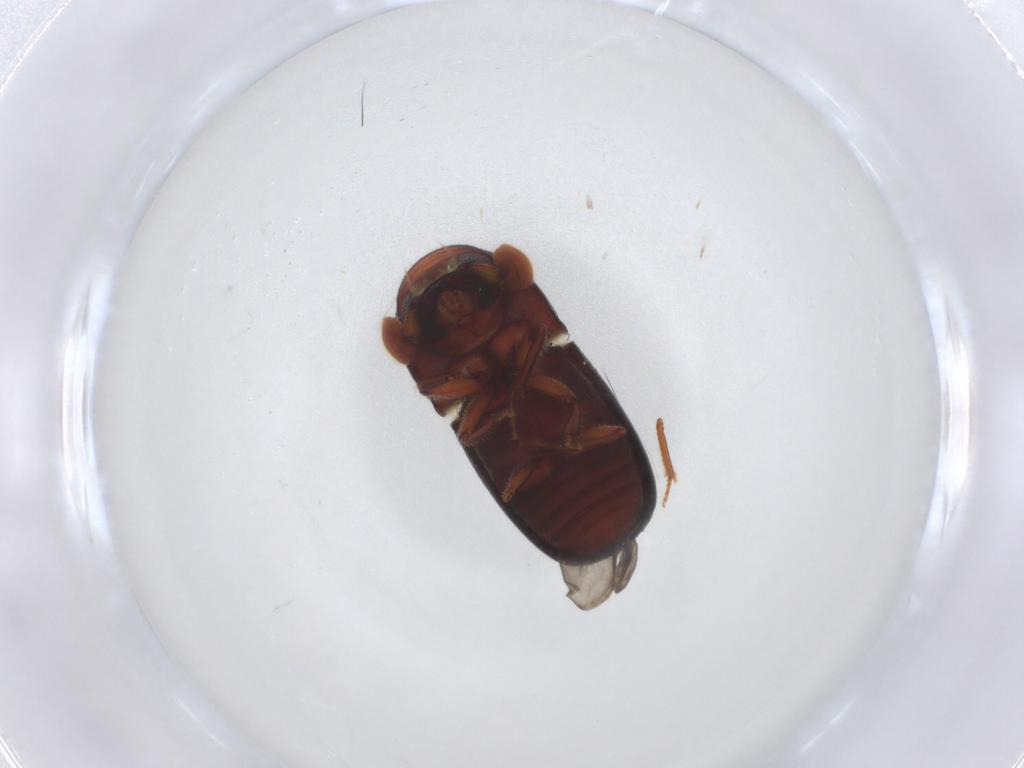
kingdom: Animalia
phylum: Arthropoda
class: Insecta
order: Coleoptera
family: Curculionidae
